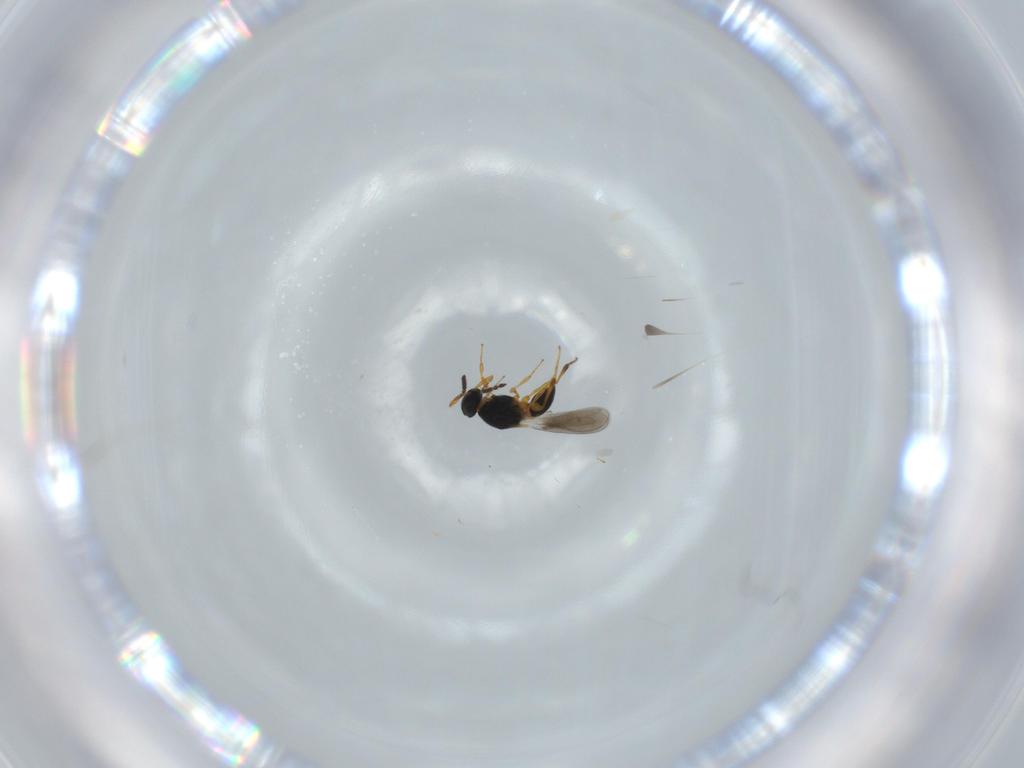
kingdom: Animalia
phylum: Arthropoda
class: Insecta
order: Hymenoptera
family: Platygastridae
